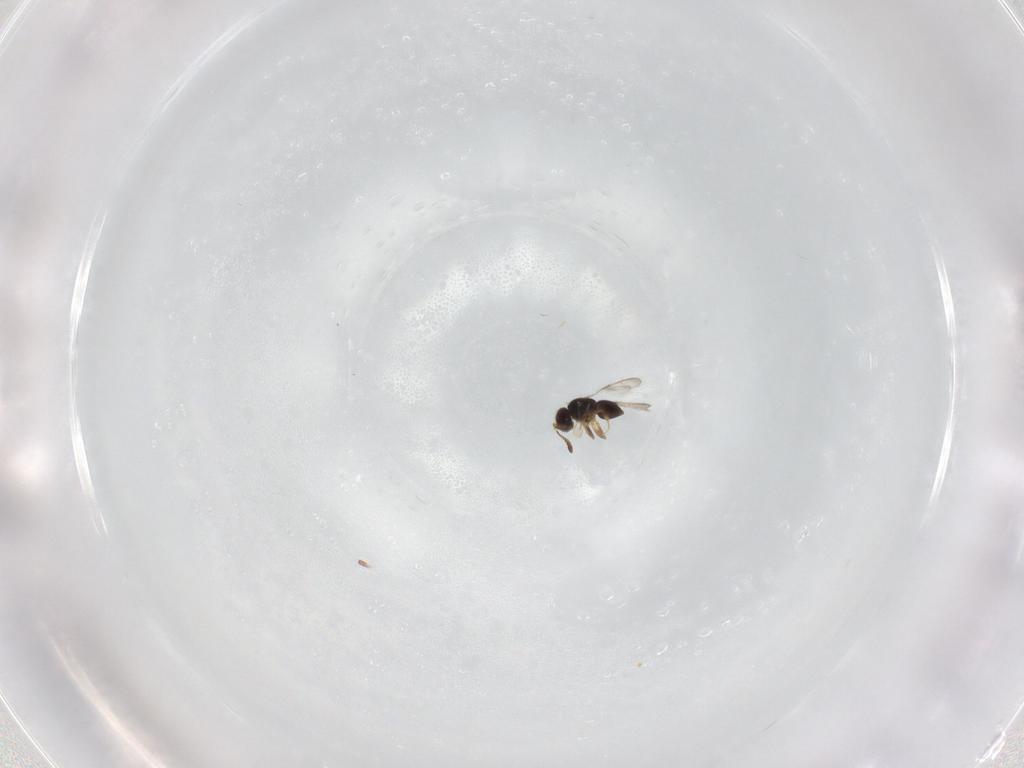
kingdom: Animalia
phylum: Arthropoda
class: Insecta
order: Hymenoptera
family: Halictidae
